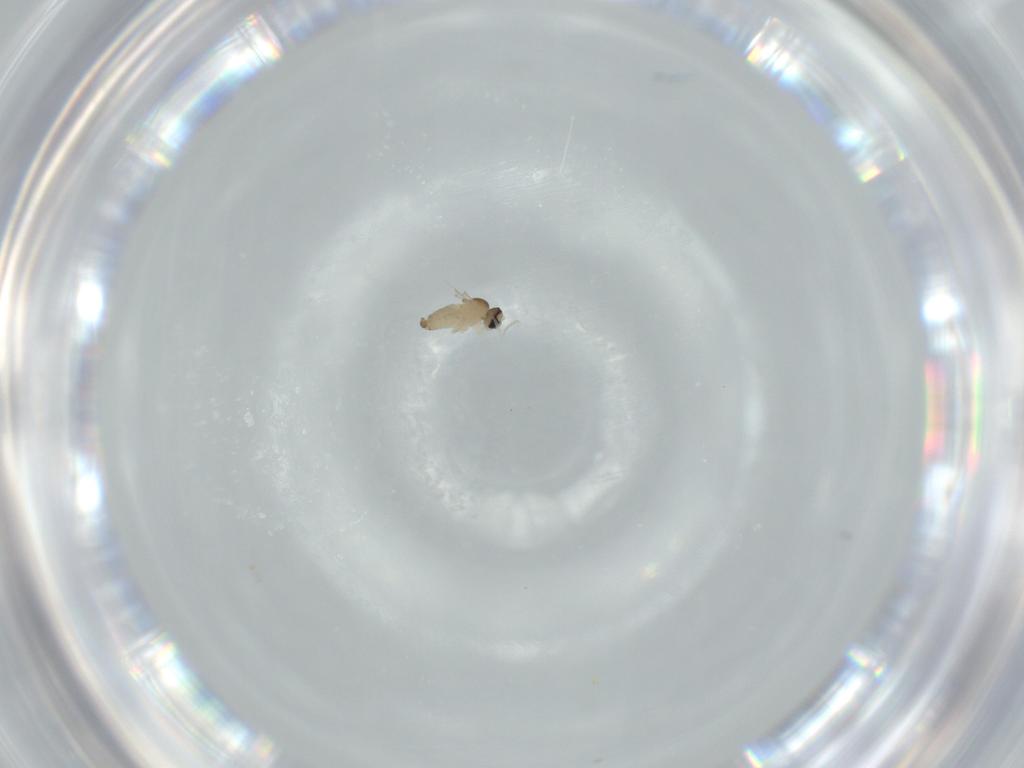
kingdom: Animalia
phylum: Arthropoda
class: Insecta
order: Diptera
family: Cecidomyiidae
